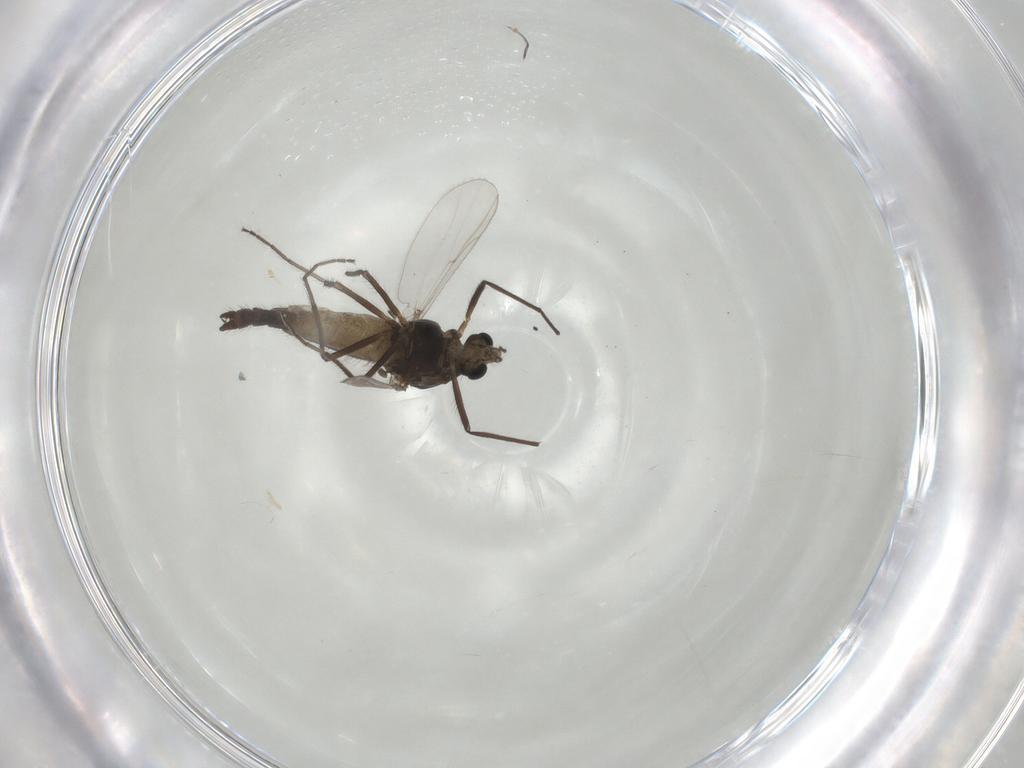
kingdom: Animalia
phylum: Arthropoda
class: Insecta
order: Diptera
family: Chironomidae
